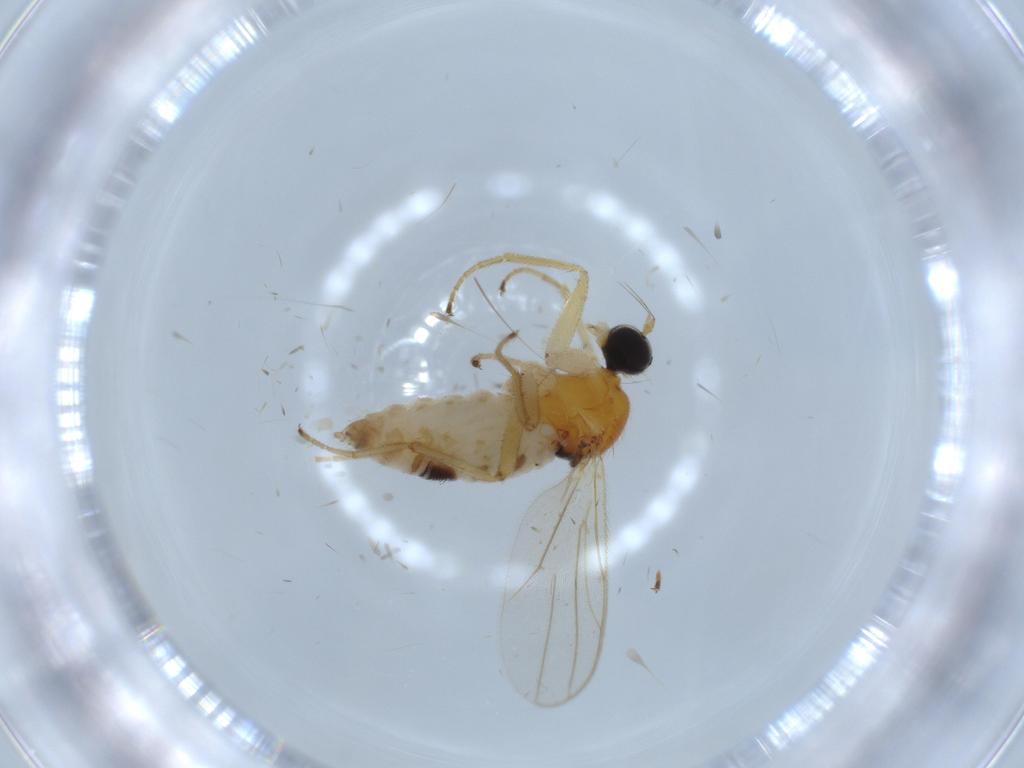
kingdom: Animalia
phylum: Arthropoda
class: Insecta
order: Diptera
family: Hybotidae
